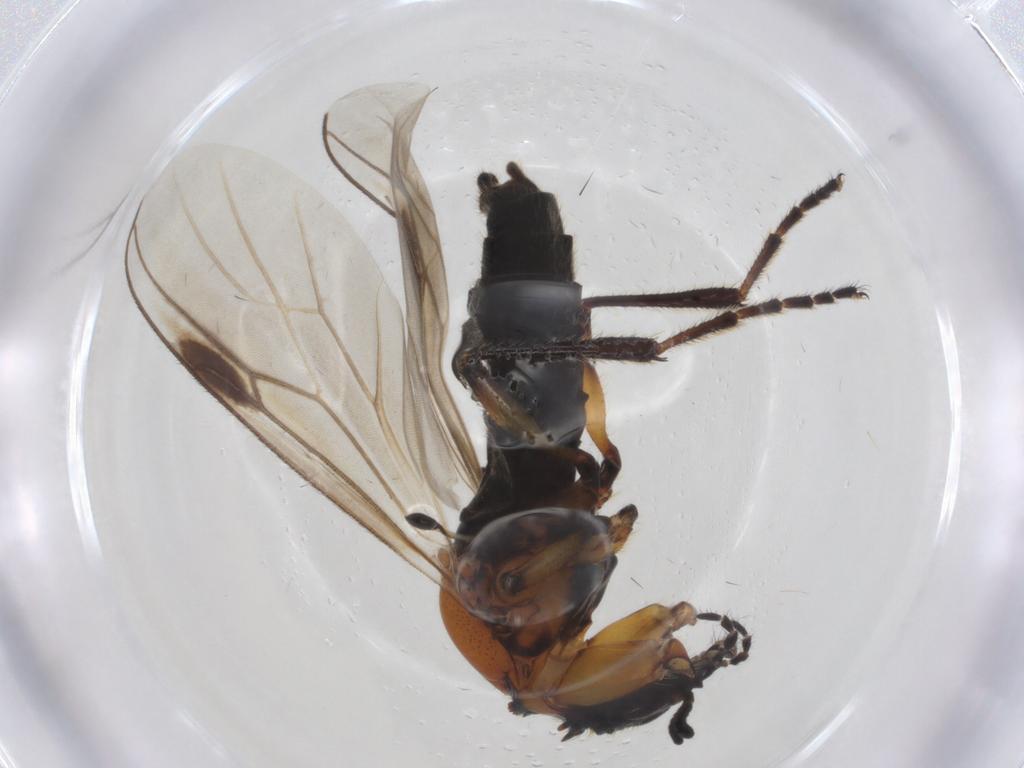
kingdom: Animalia
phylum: Arthropoda
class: Insecta
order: Diptera
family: Bibionidae
